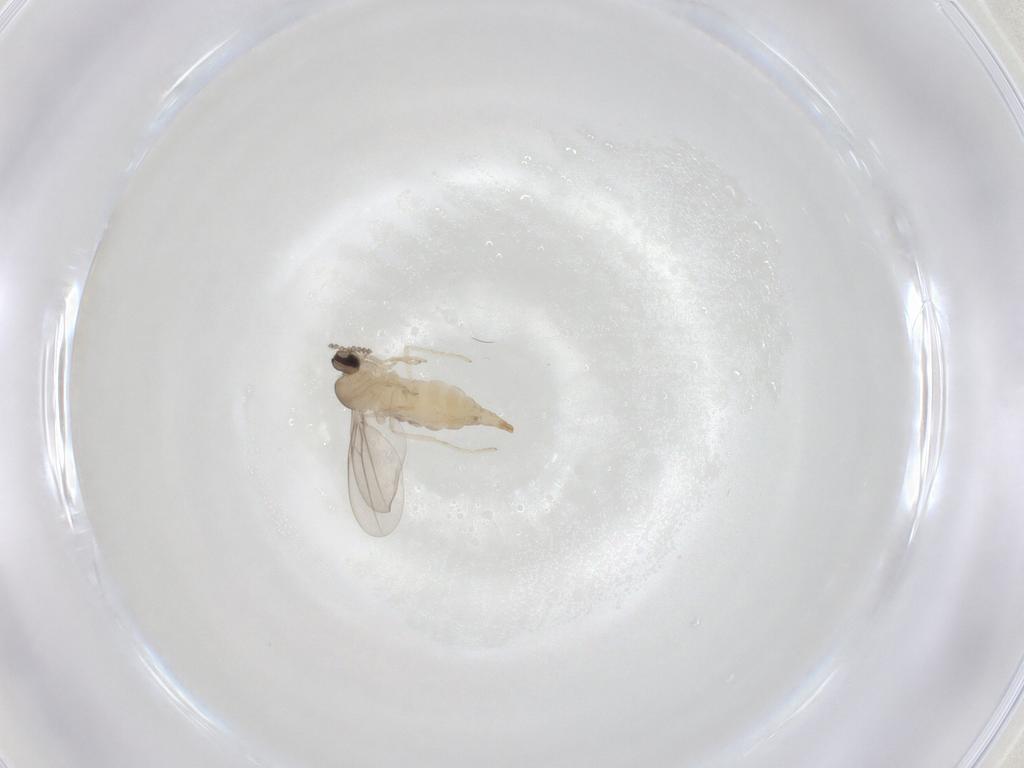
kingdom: Animalia
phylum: Arthropoda
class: Insecta
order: Diptera
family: Cecidomyiidae
